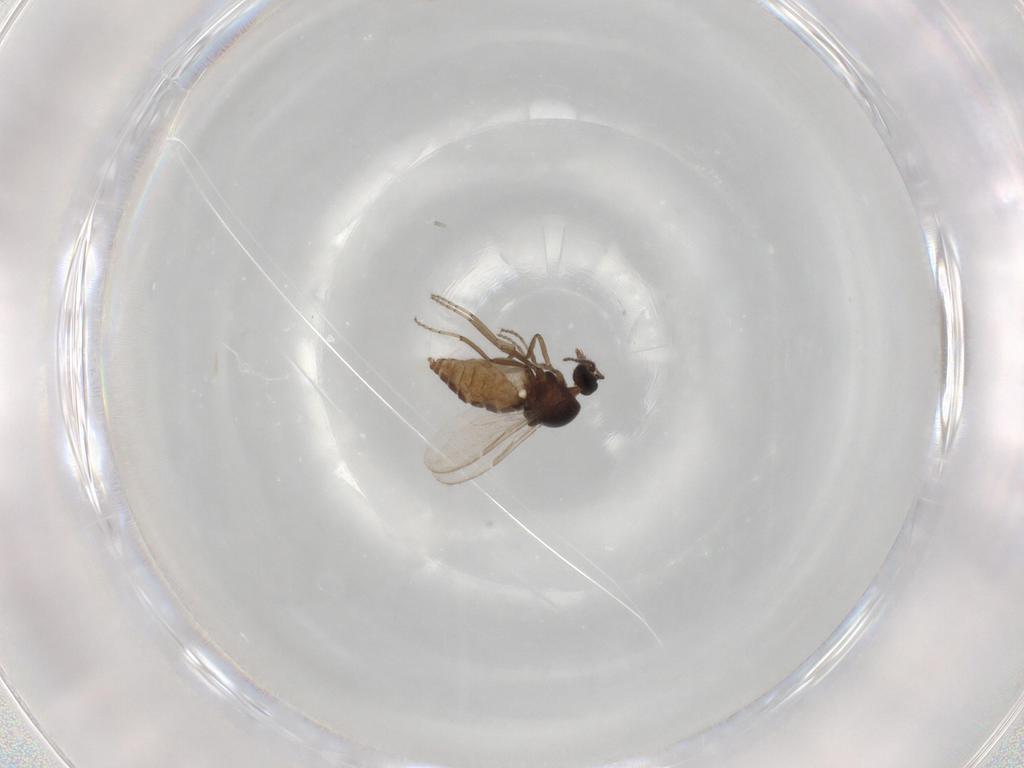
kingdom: Animalia
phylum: Arthropoda
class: Insecta
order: Diptera
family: Ceratopogonidae
